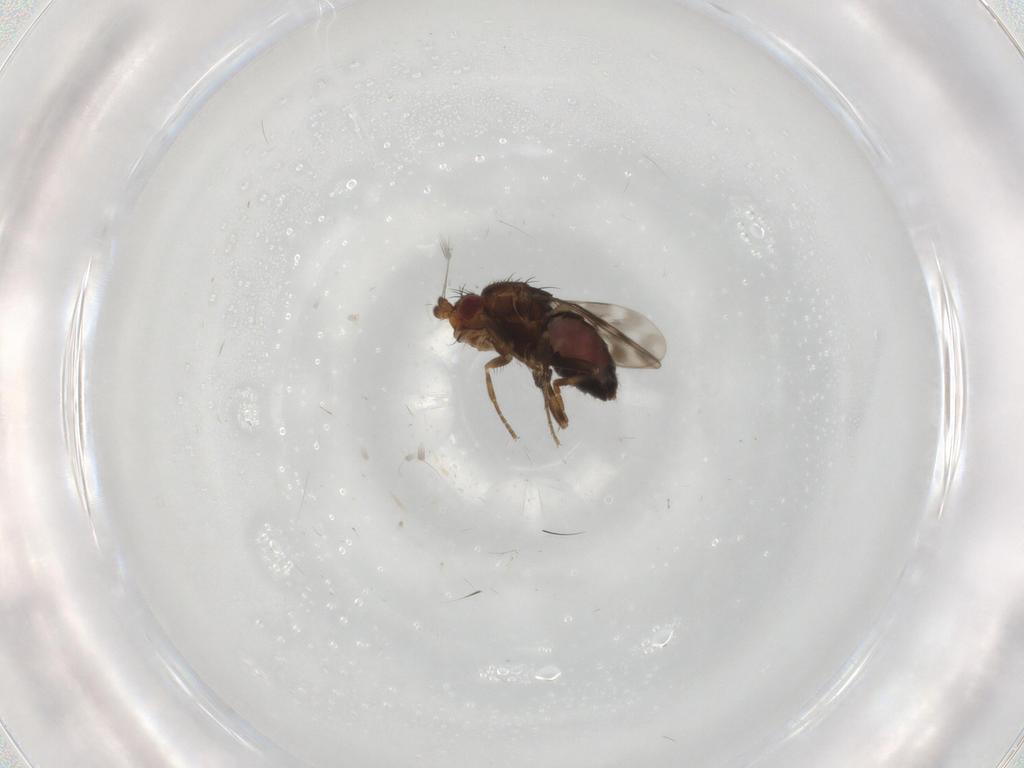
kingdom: Animalia
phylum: Arthropoda
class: Insecta
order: Diptera
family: Sphaeroceridae
